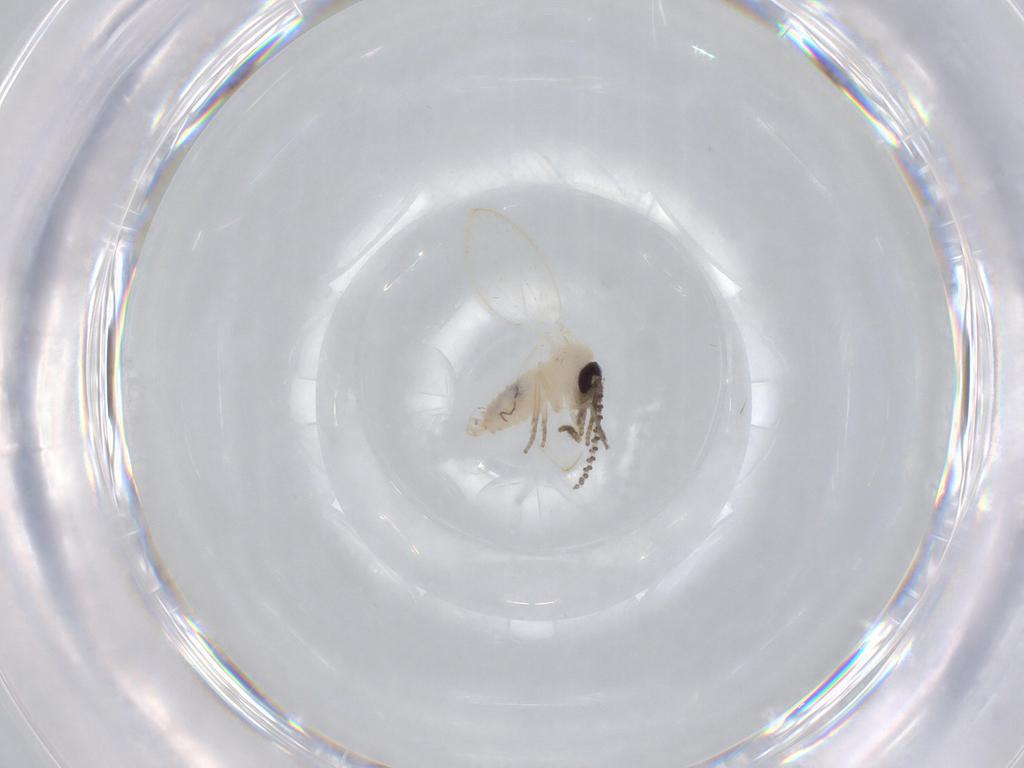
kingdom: Animalia
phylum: Arthropoda
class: Insecta
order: Diptera
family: Psychodidae
